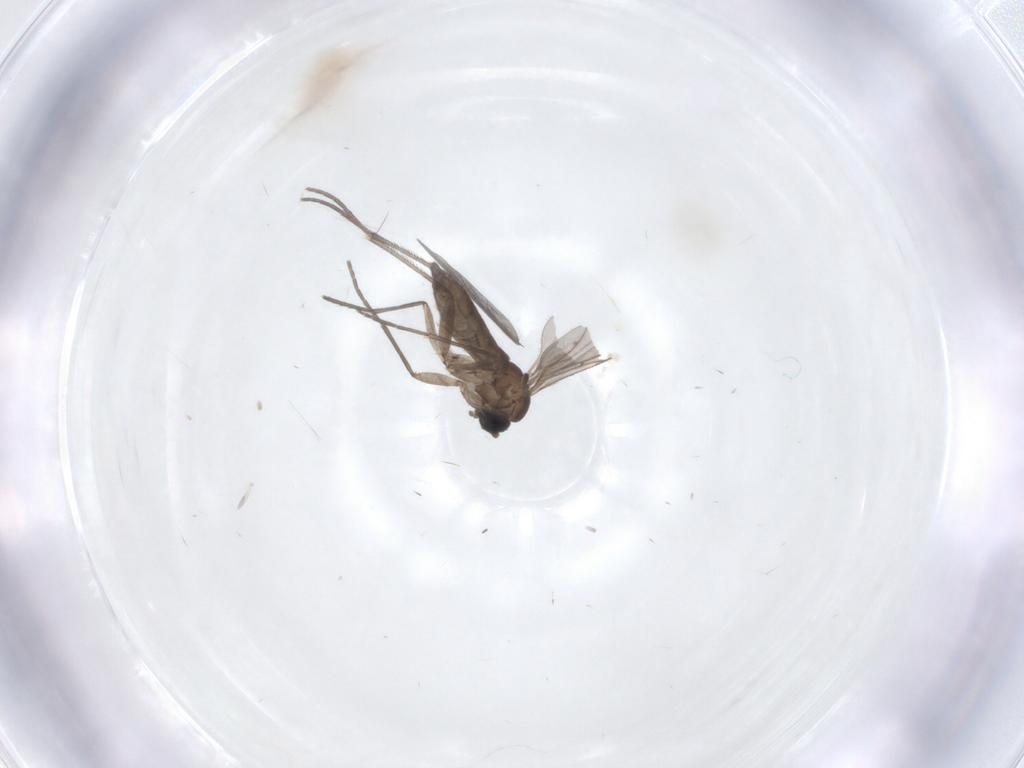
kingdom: Animalia
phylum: Arthropoda
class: Insecta
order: Diptera
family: Sciaridae
